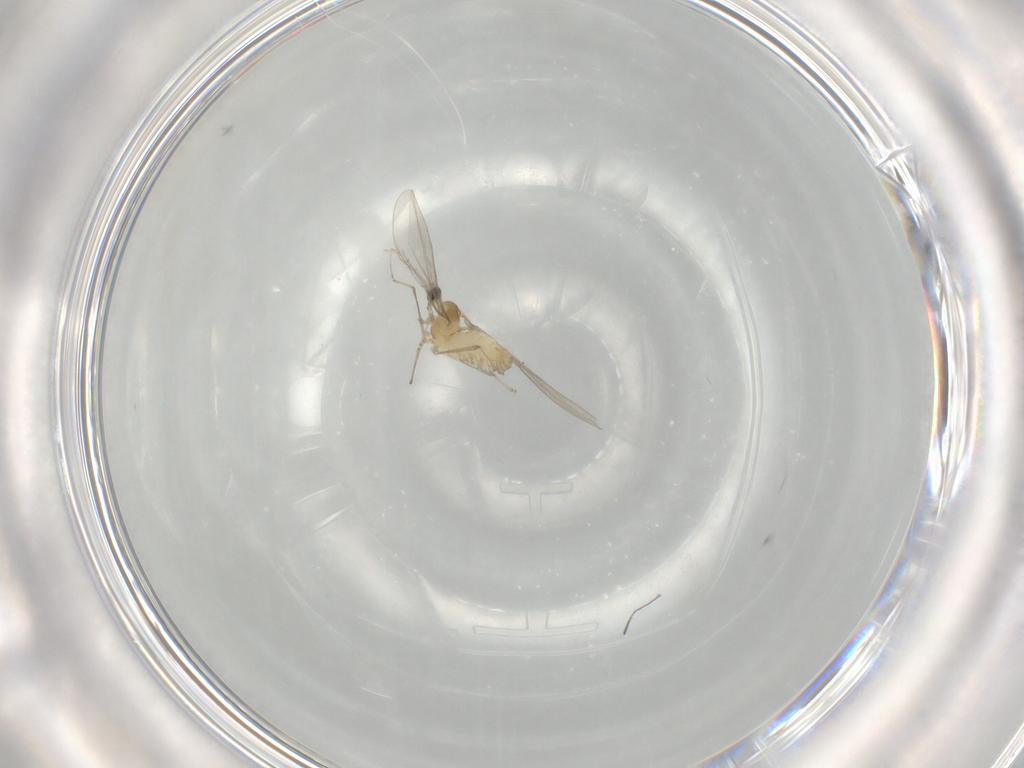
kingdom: Animalia
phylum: Arthropoda
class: Insecta
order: Diptera
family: Cecidomyiidae
